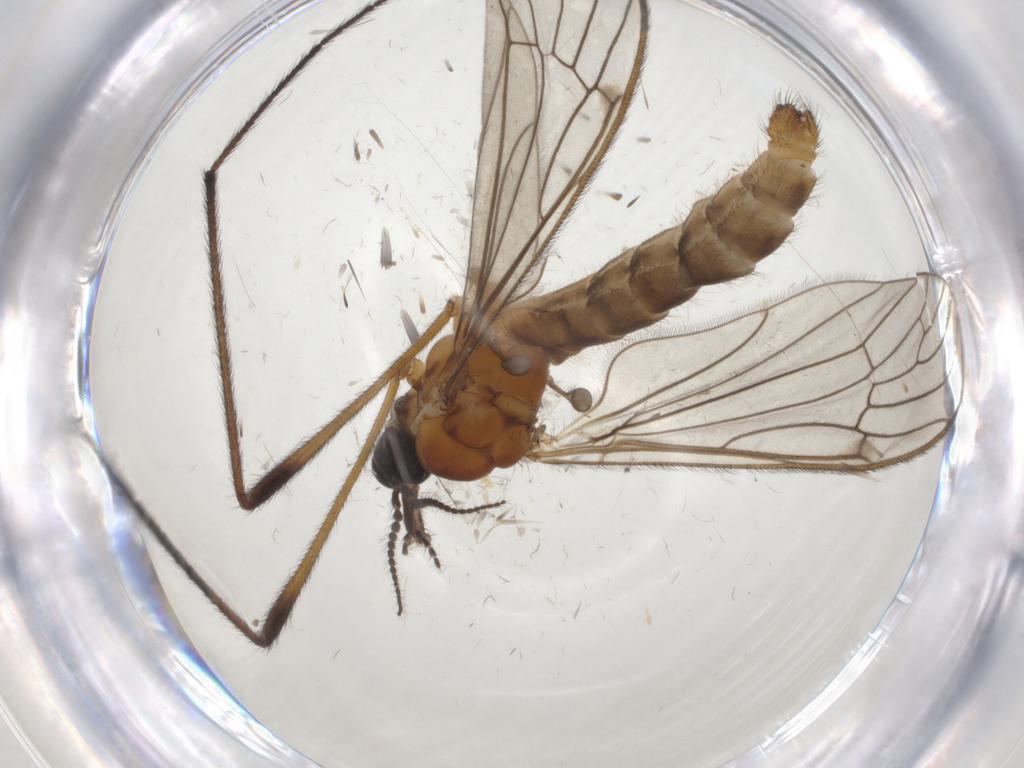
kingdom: Animalia
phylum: Arthropoda
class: Insecta
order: Diptera
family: Limoniidae
